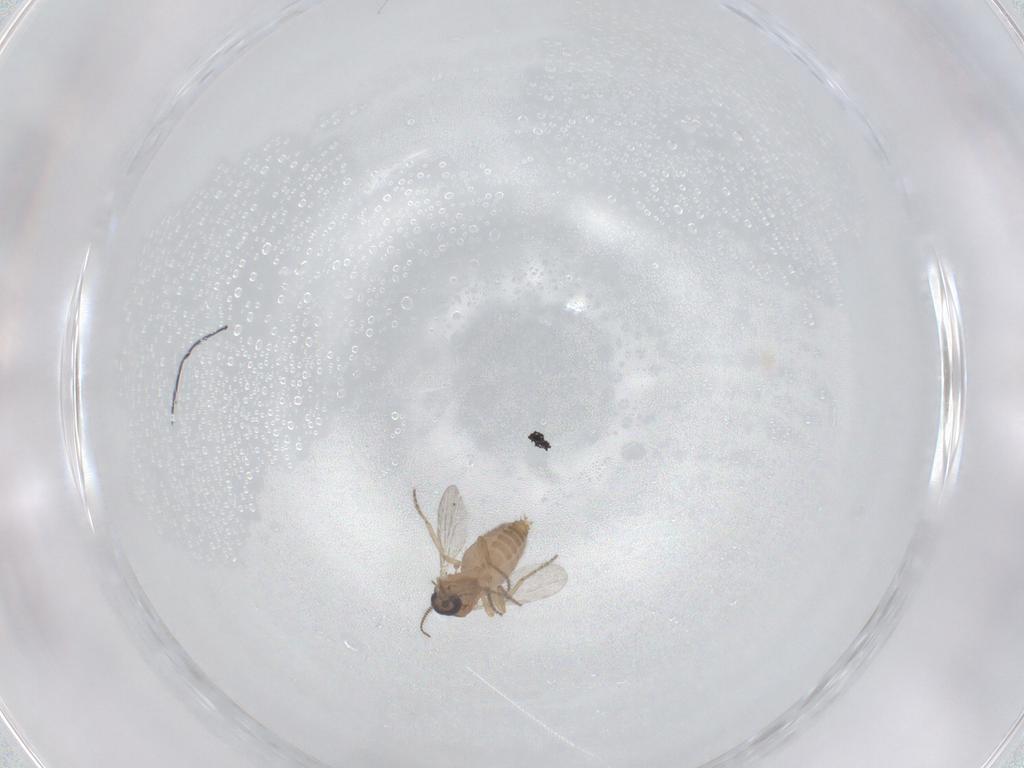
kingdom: Animalia
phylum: Arthropoda
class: Insecta
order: Diptera
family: Ceratopogonidae
